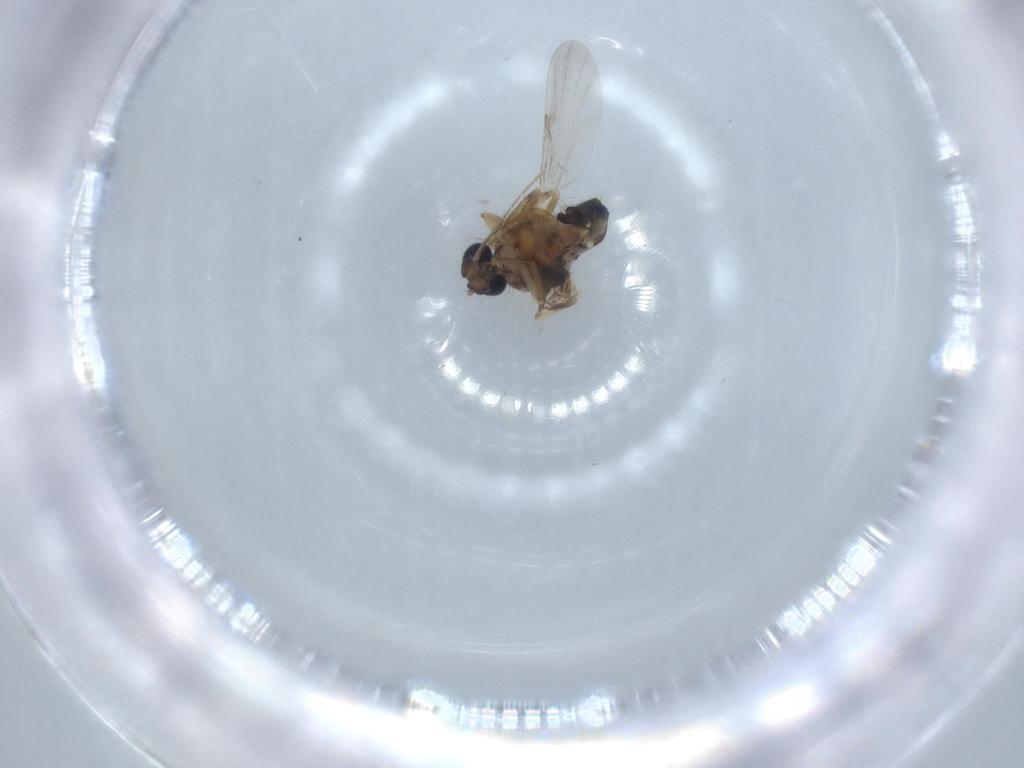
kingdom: Animalia
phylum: Arthropoda
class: Insecta
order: Diptera
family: Ceratopogonidae
